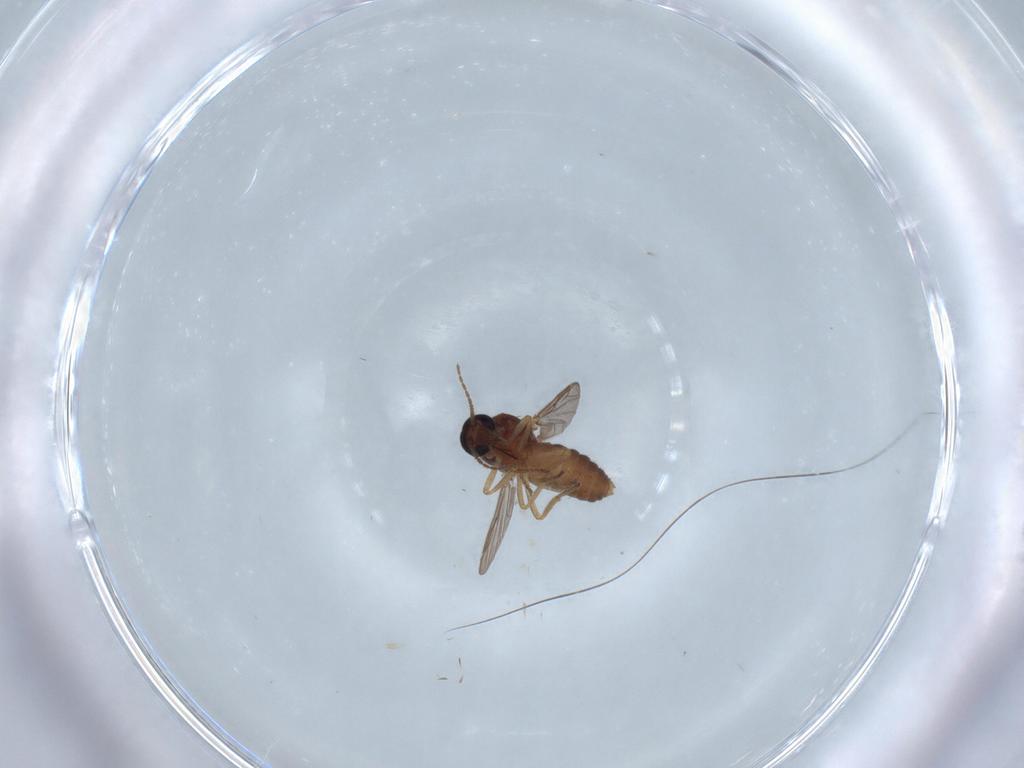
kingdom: Animalia
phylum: Arthropoda
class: Insecta
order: Diptera
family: Ceratopogonidae
